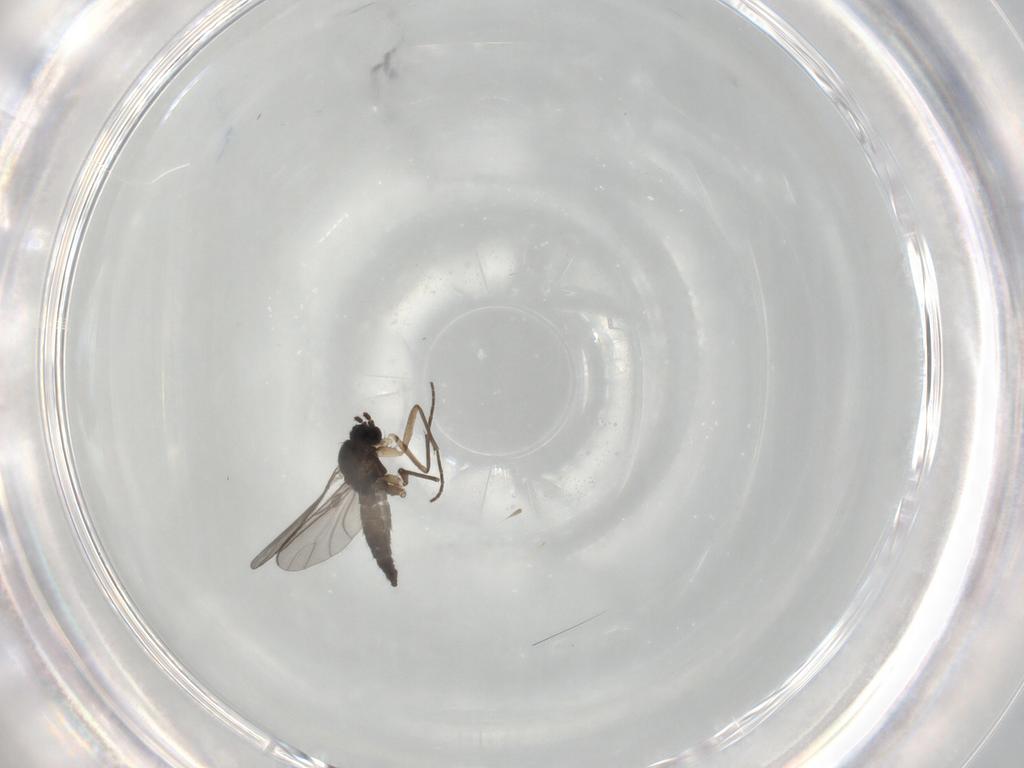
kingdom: Animalia
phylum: Arthropoda
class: Insecta
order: Diptera
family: Sciaridae
